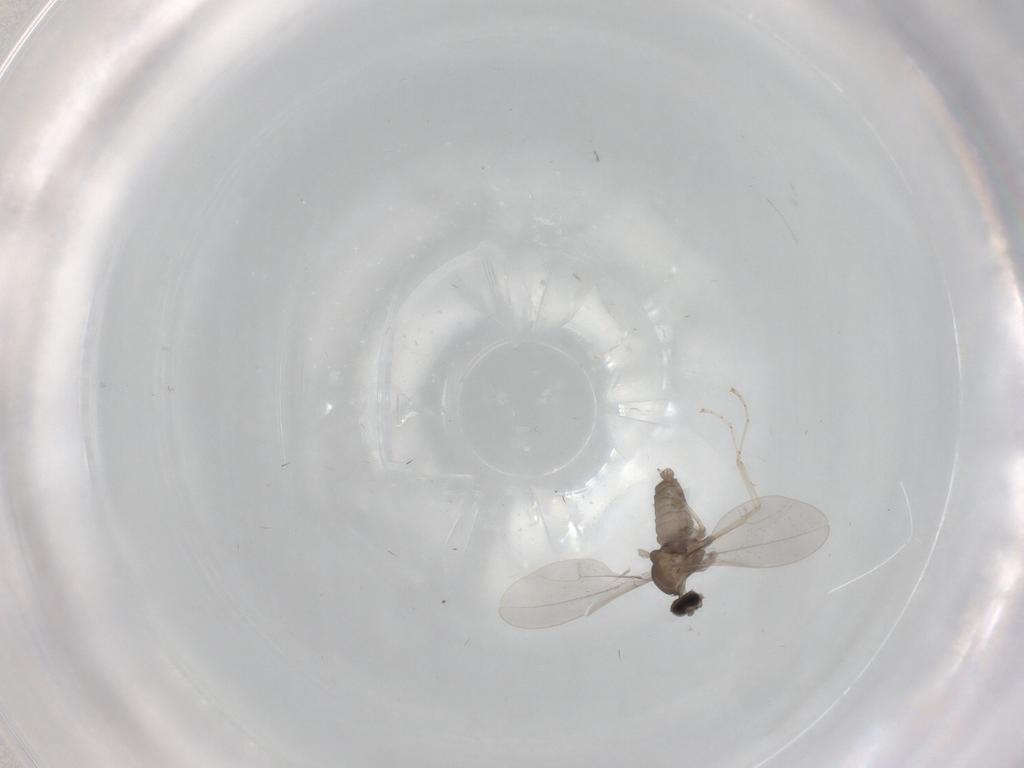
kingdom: Animalia
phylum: Arthropoda
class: Insecta
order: Diptera
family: Cecidomyiidae
